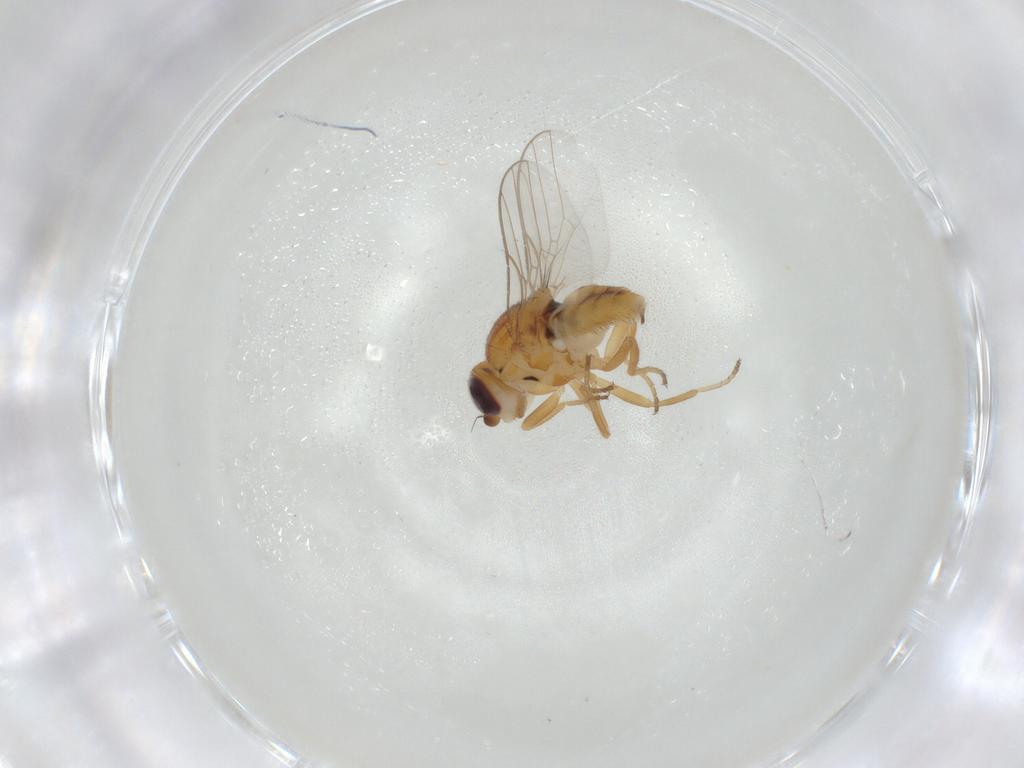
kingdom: Animalia
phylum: Arthropoda
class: Insecta
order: Diptera
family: Chloropidae
